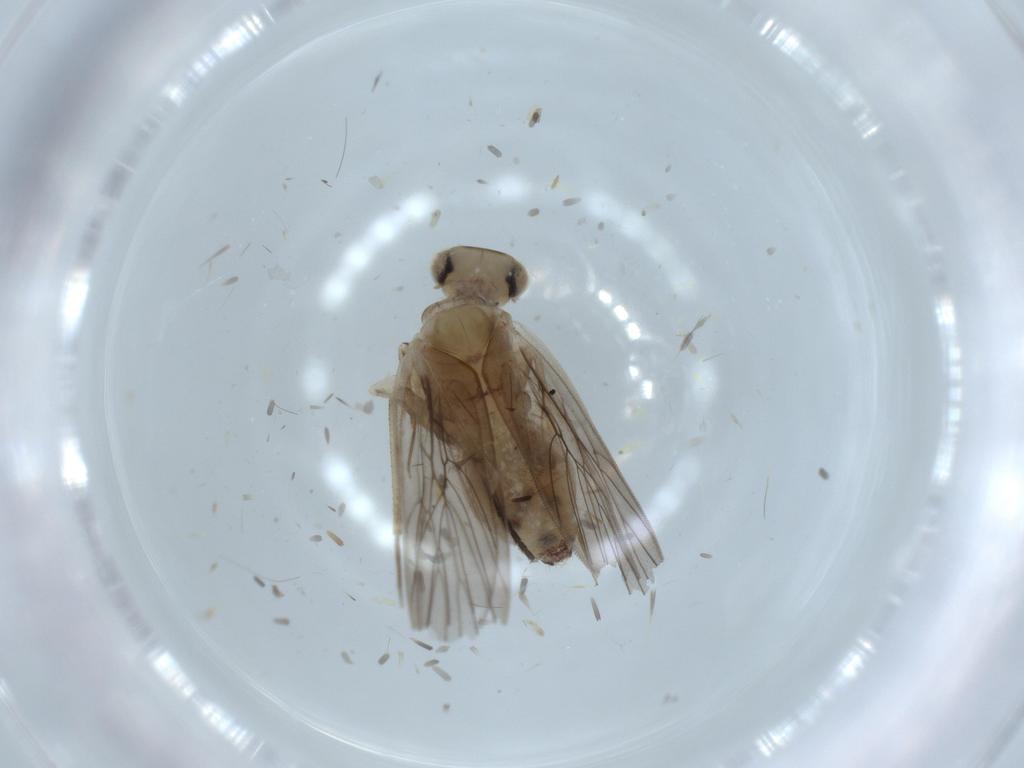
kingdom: Animalia
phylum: Arthropoda
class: Insecta
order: Psocodea
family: Lepidopsocidae
